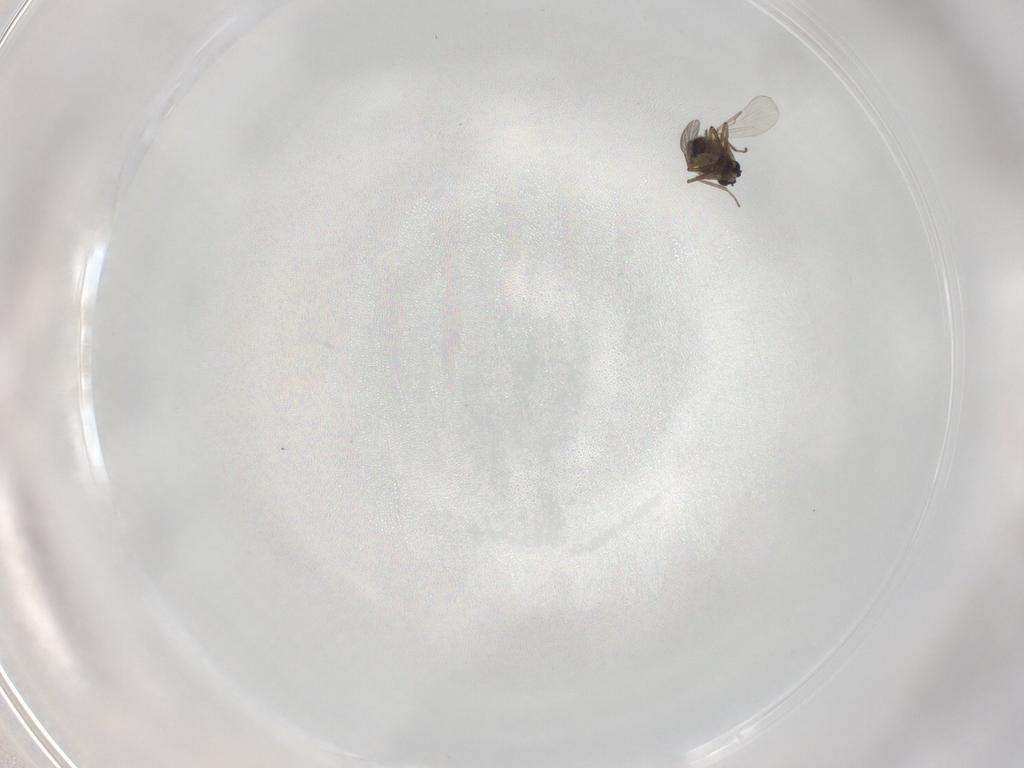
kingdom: Animalia
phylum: Arthropoda
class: Insecta
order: Diptera
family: Ceratopogonidae
